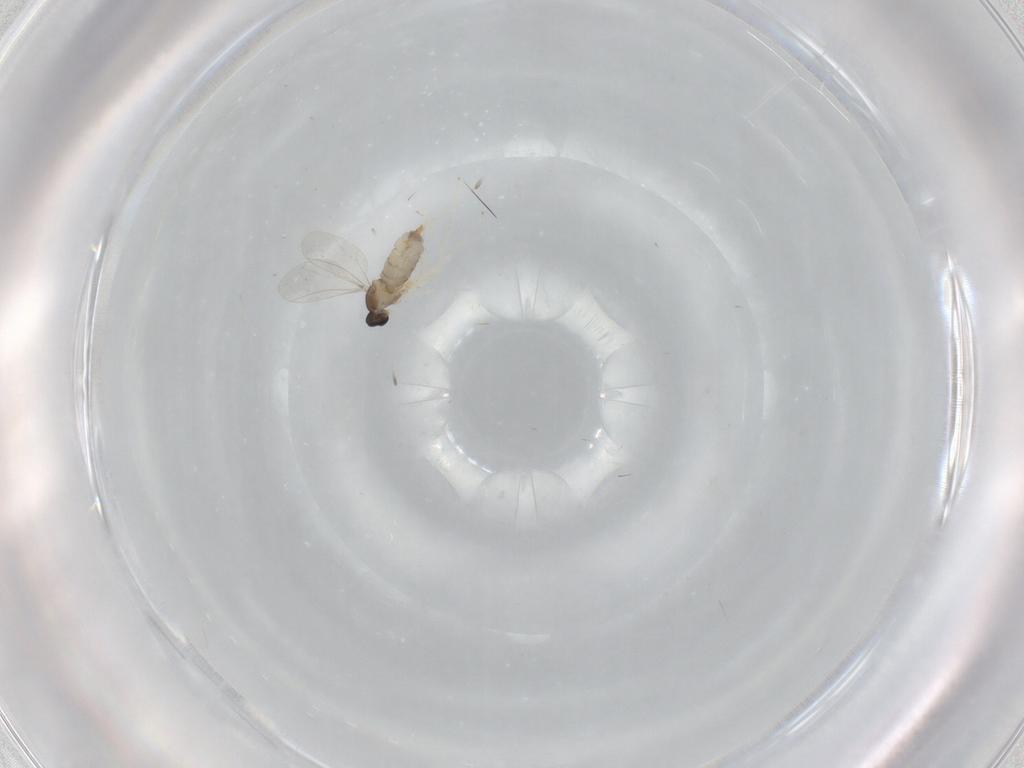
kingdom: Animalia
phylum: Arthropoda
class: Insecta
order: Diptera
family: Cecidomyiidae
